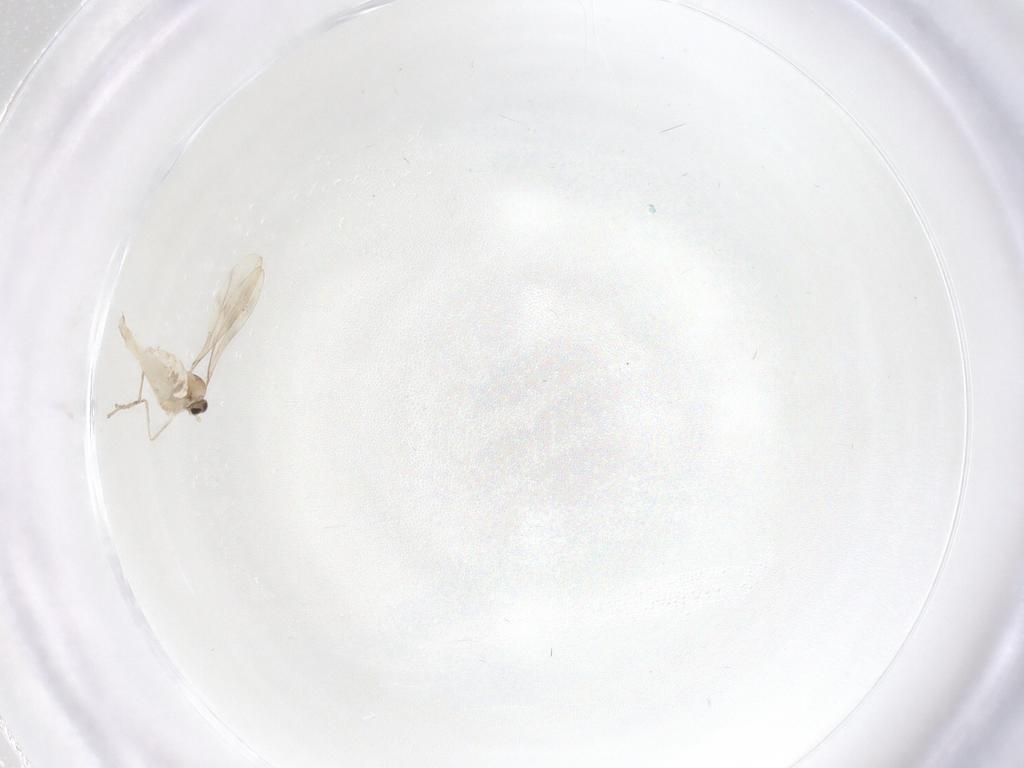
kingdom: Animalia
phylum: Arthropoda
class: Insecta
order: Diptera
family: Cecidomyiidae
